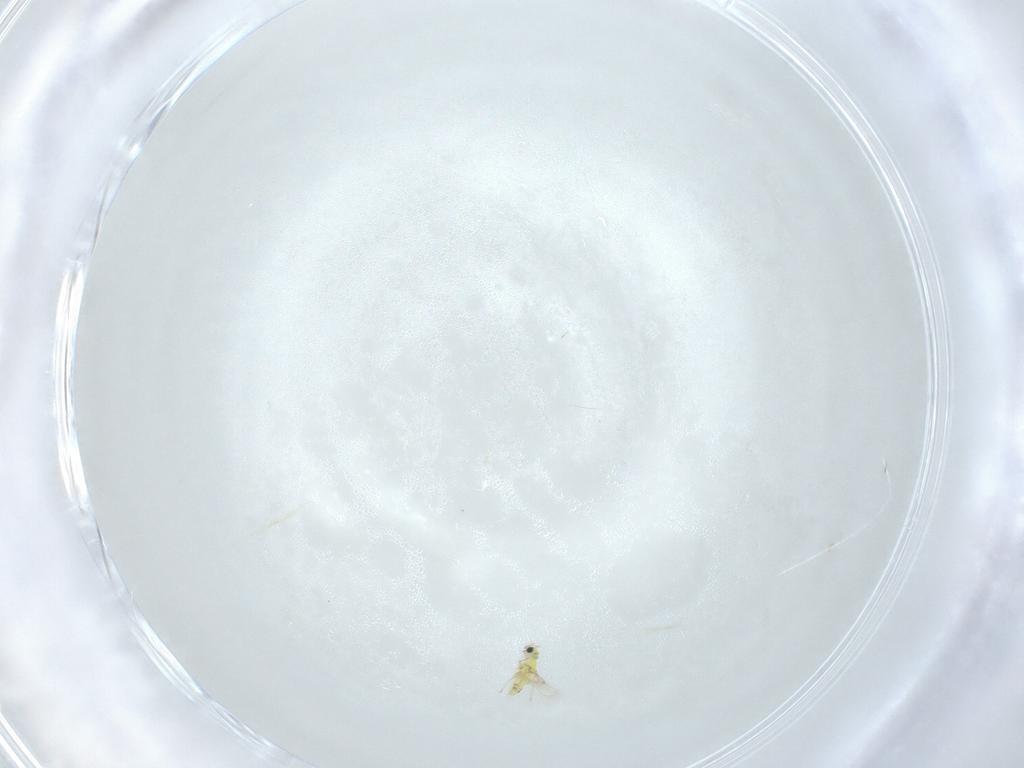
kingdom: Animalia
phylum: Arthropoda
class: Insecta
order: Hymenoptera
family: Trichogrammatidae
